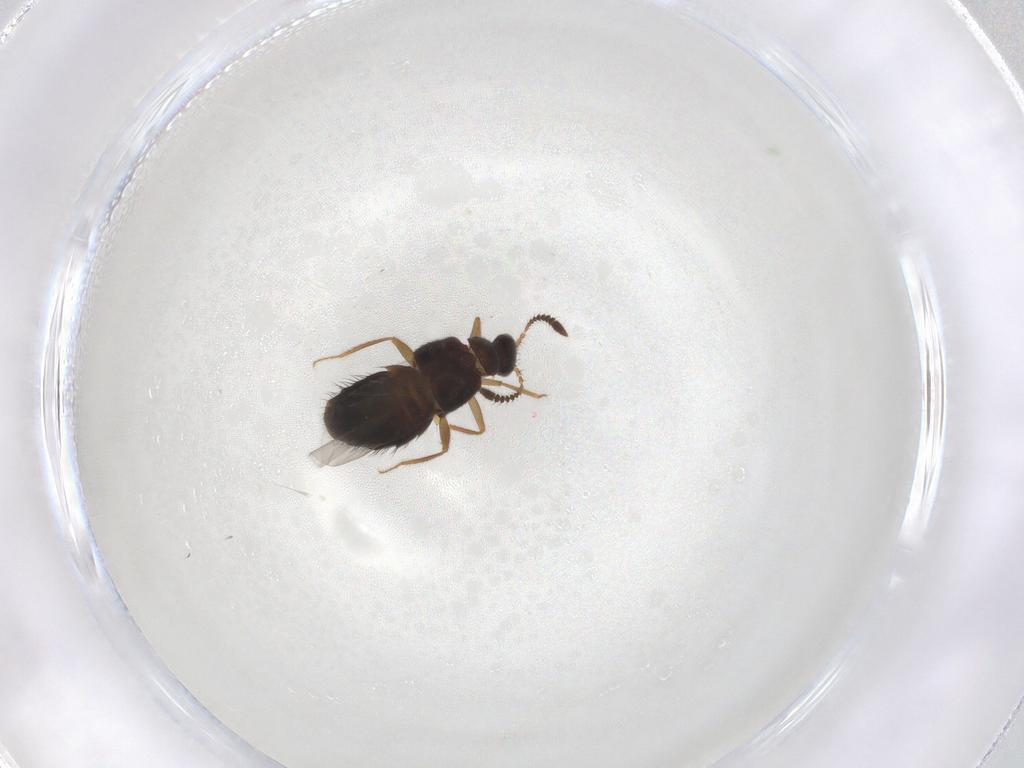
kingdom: Animalia
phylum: Arthropoda
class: Insecta
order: Coleoptera
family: Staphylinidae
